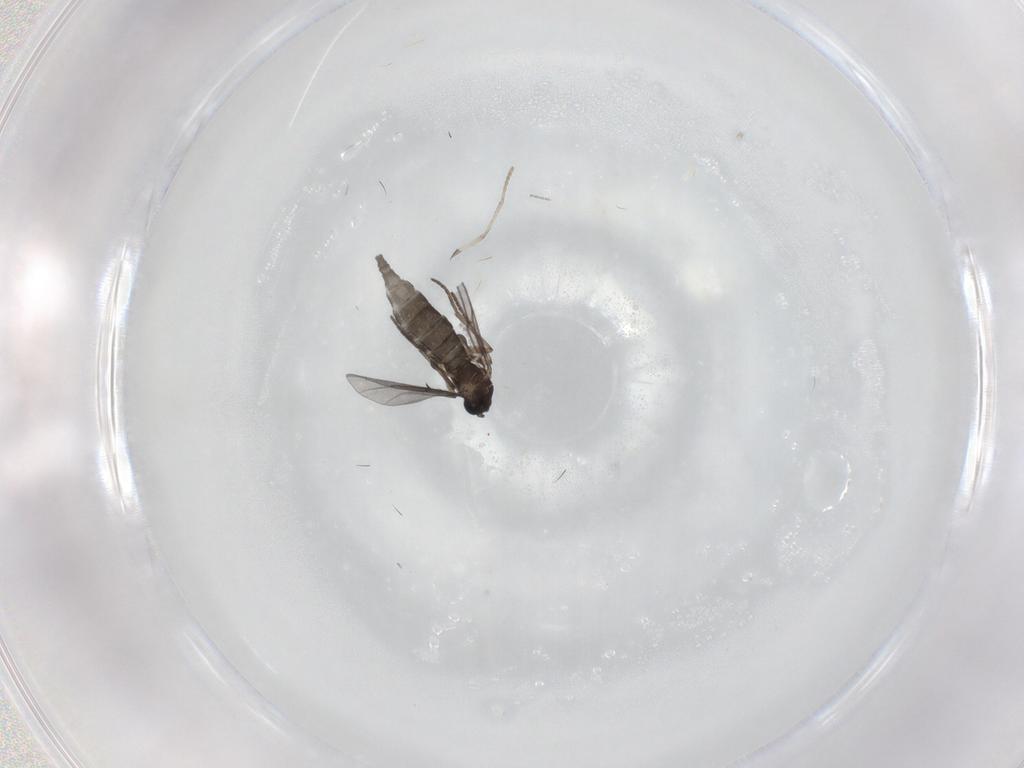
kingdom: Animalia
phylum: Arthropoda
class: Insecta
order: Diptera
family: Sciaridae
